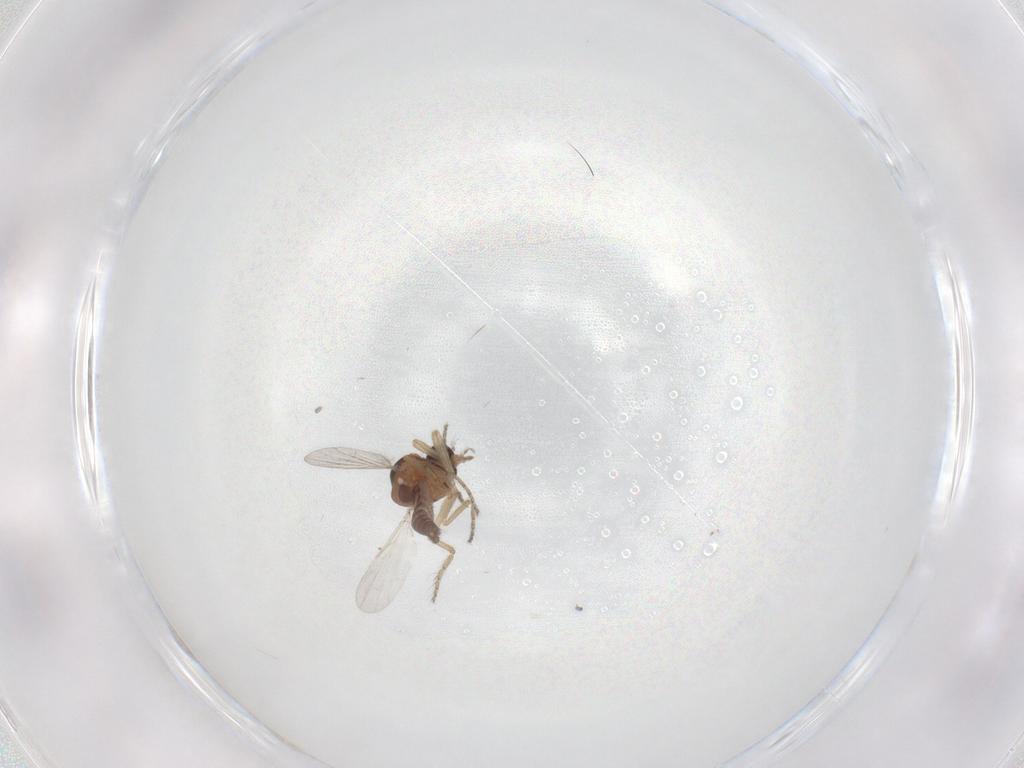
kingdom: Animalia
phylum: Arthropoda
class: Insecta
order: Diptera
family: Ceratopogonidae
